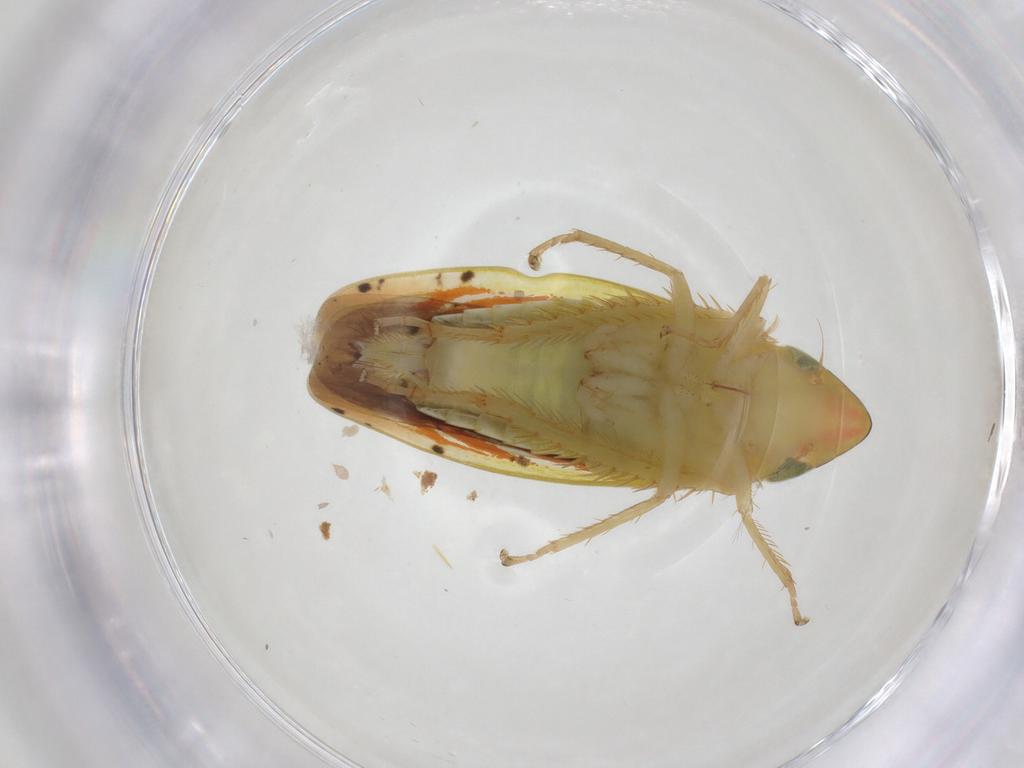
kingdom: Animalia
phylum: Arthropoda
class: Insecta
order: Hemiptera
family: Cicadellidae
